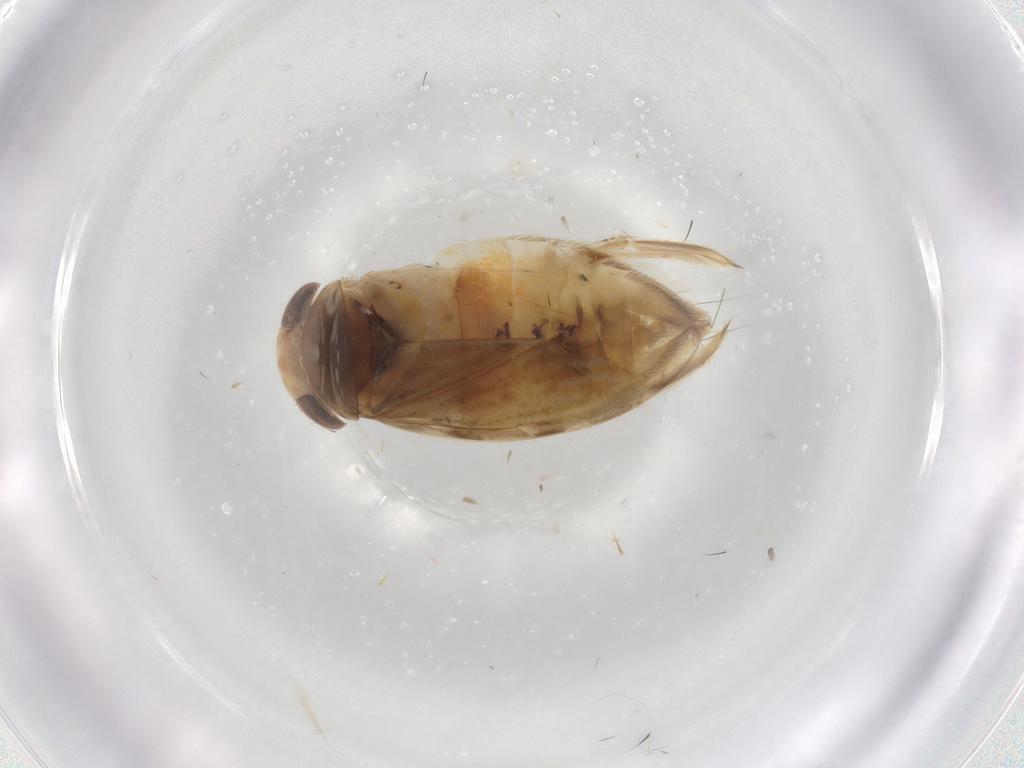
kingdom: Animalia
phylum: Arthropoda
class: Insecta
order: Hemiptera
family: Corixidae
